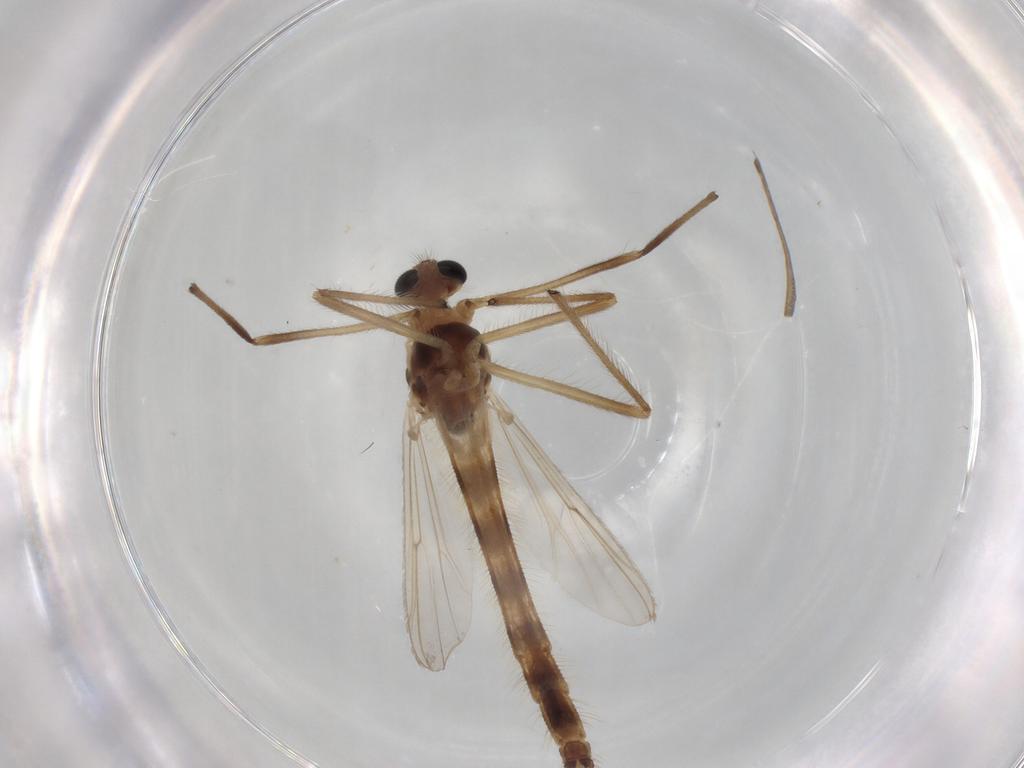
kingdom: Animalia
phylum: Arthropoda
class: Insecta
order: Diptera
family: Chironomidae
